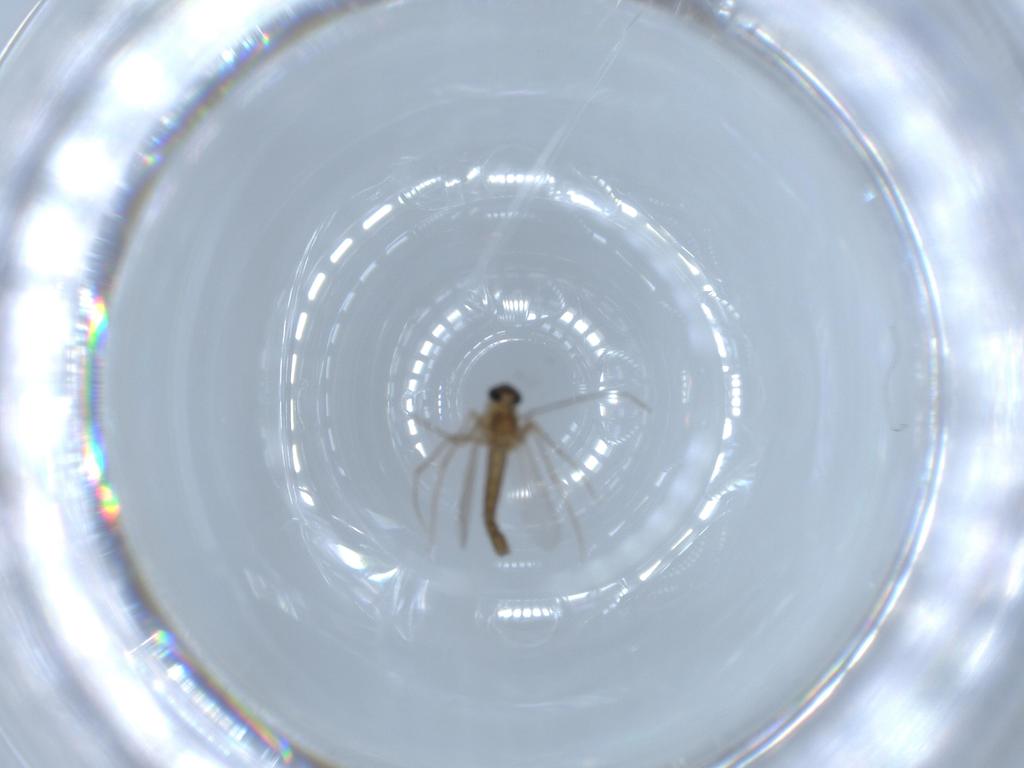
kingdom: Animalia
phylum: Arthropoda
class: Insecta
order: Diptera
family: Chironomidae
